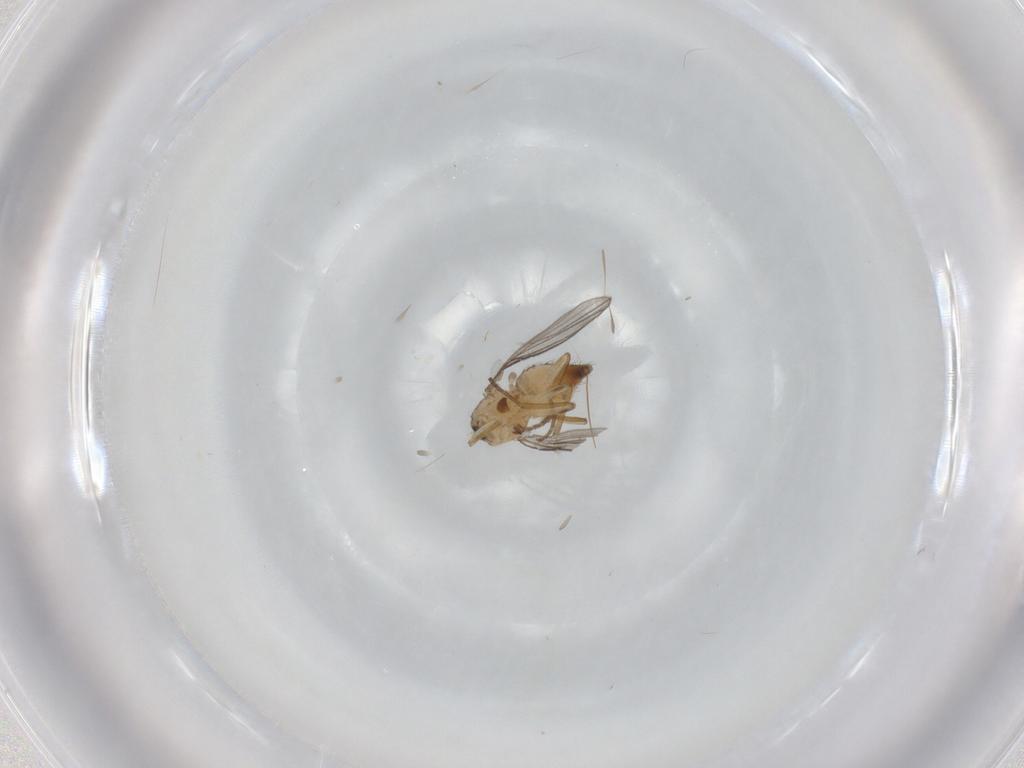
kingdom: Animalia
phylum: Arthropoda
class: Insecta
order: Diptera
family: Agromyzidae
